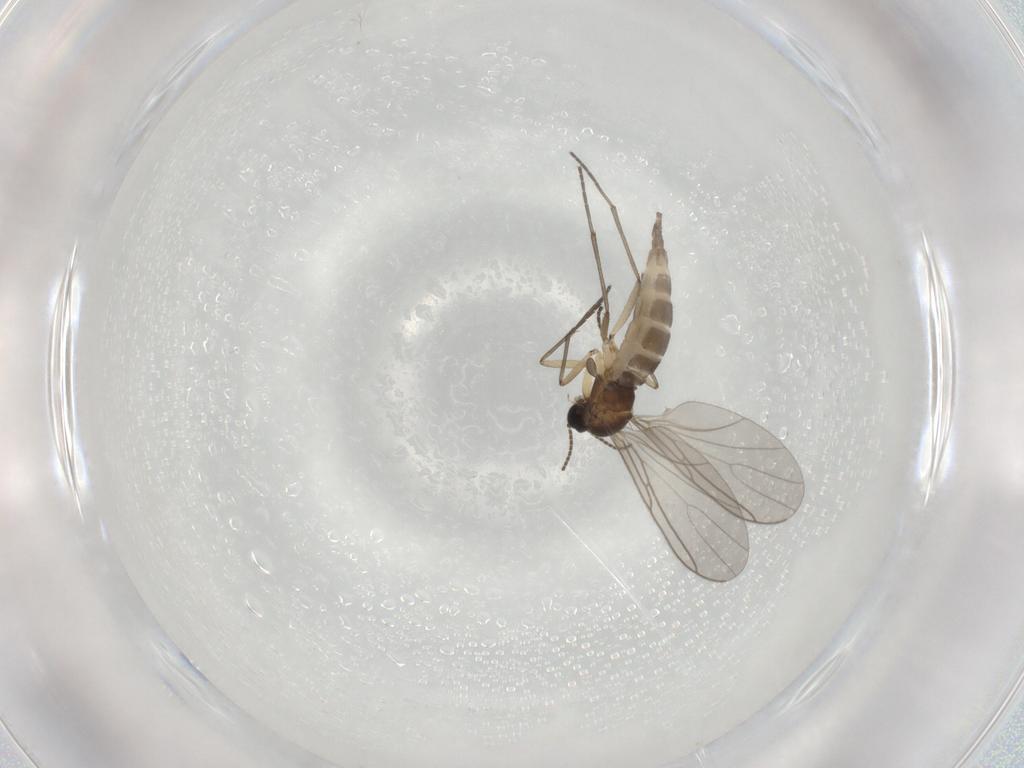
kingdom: Animalia
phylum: Arthropoda
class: Insecta
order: Diptera
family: Sciaridae
